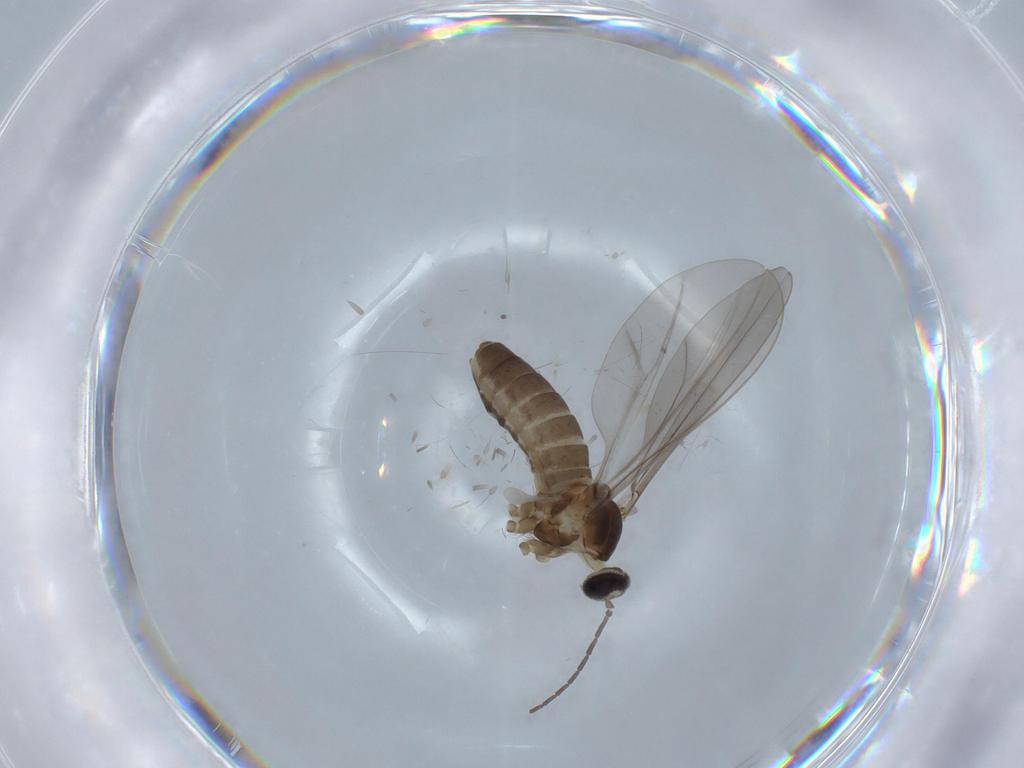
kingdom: Animalia
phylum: Arthropoda
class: Insecta
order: Diptera
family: Cecidomyiidae
